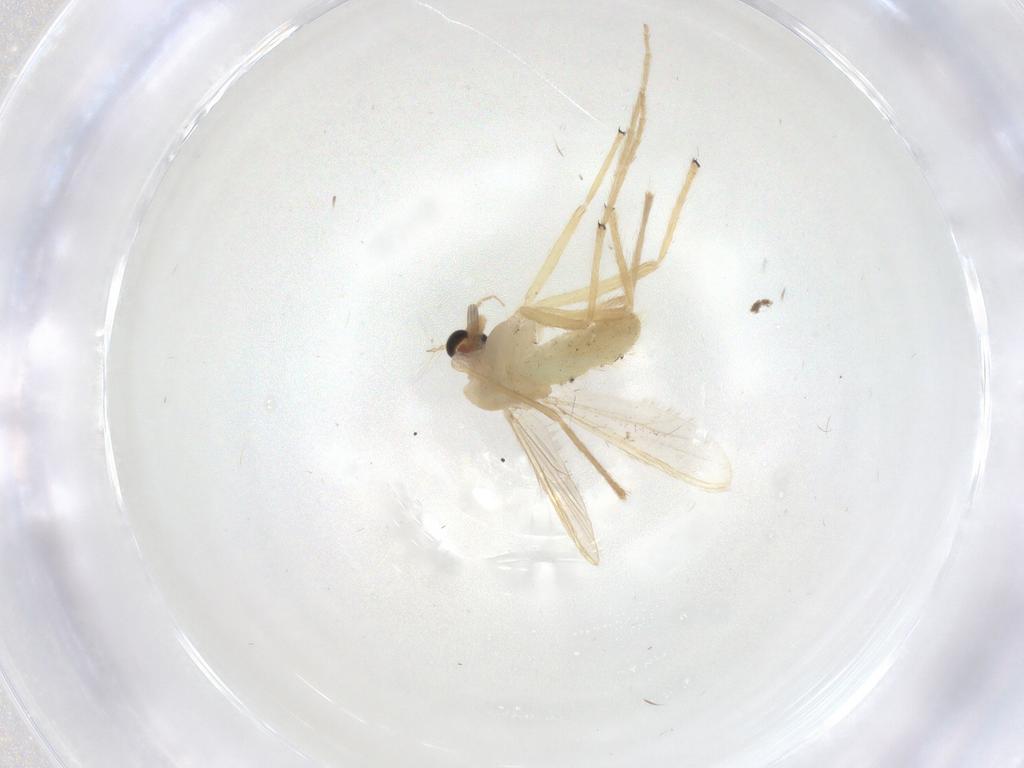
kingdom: Animalia
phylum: Arthropoda
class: Insecta
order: Diptera
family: Limoniidae
